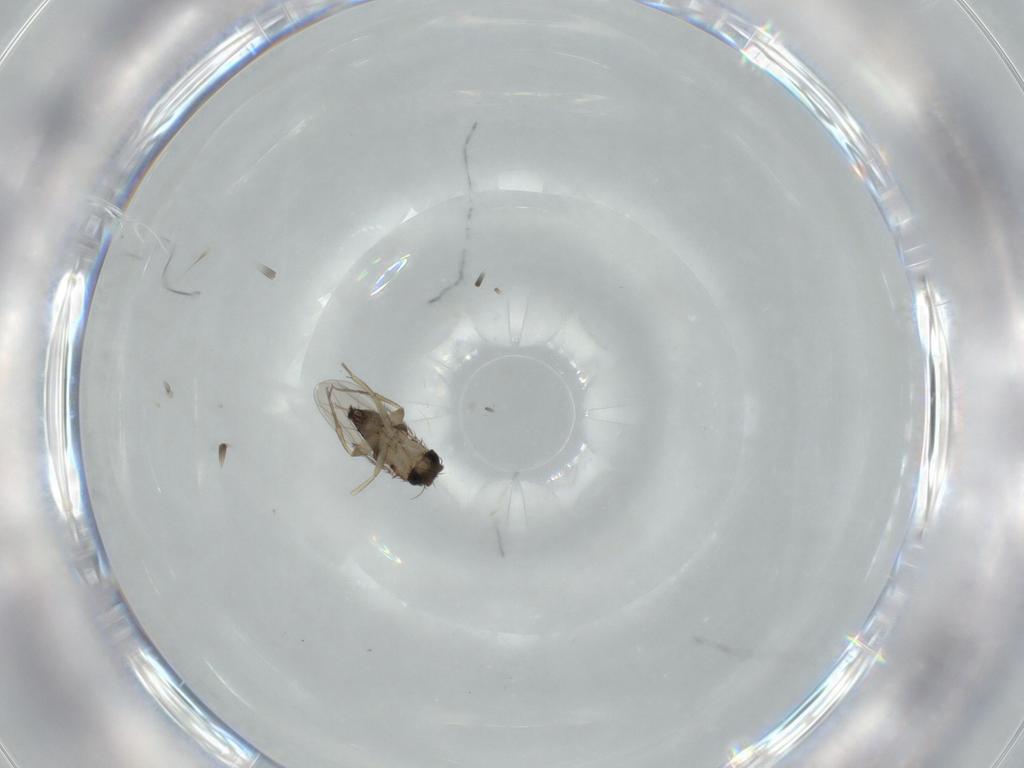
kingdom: Animalia
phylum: Arthropoda
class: Insecta
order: Diptera
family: Phoridae
